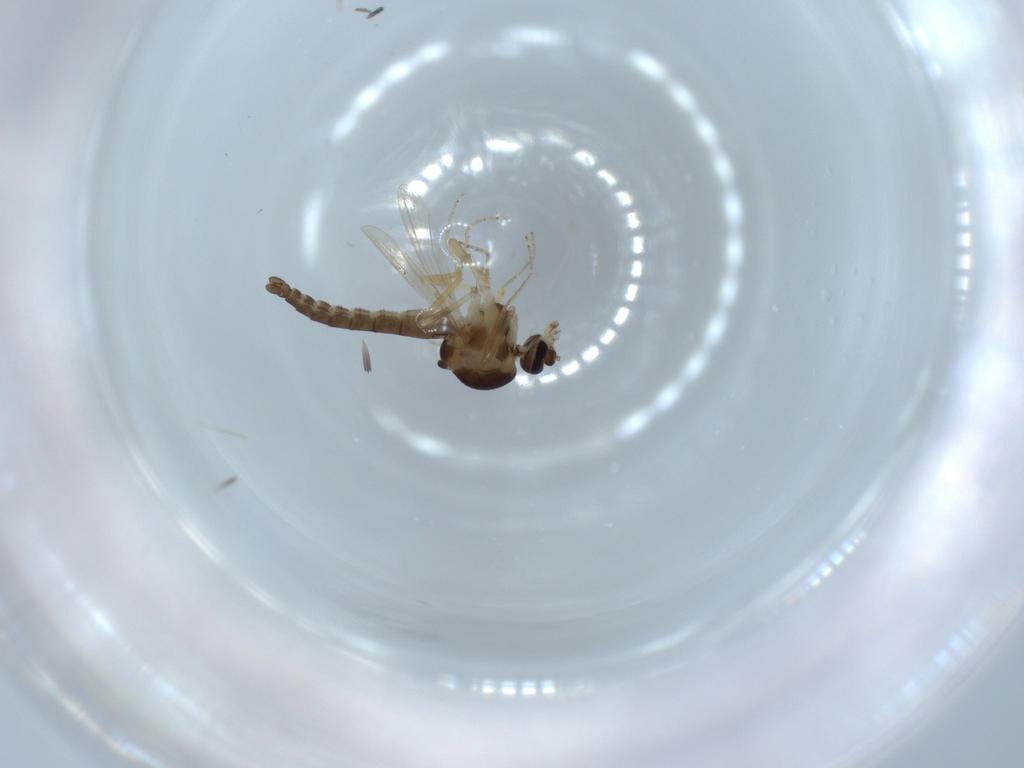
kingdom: Animalia
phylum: Arthropoda
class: Insecta
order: Diptera
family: Ceratopogonidae
